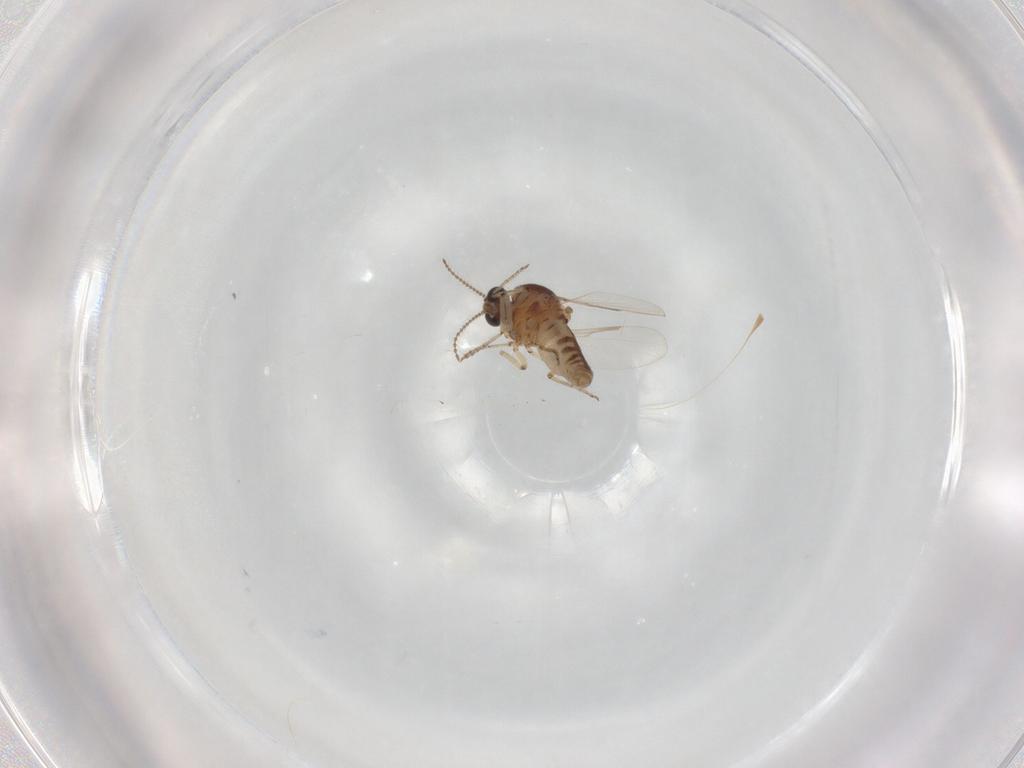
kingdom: Animalia
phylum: Arthropoda
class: Insecta
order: Diptera
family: Ceratopogonidae
